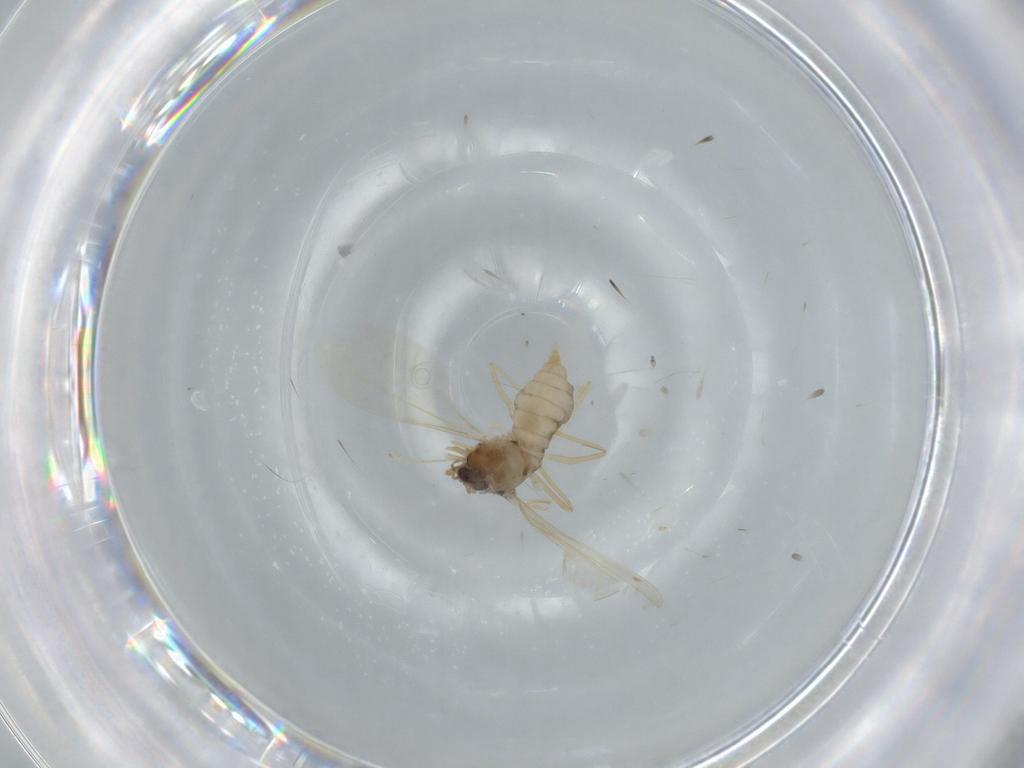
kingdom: Animalia
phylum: Arthropoda
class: Insecta
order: Diptera
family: Cecidomyiidae
